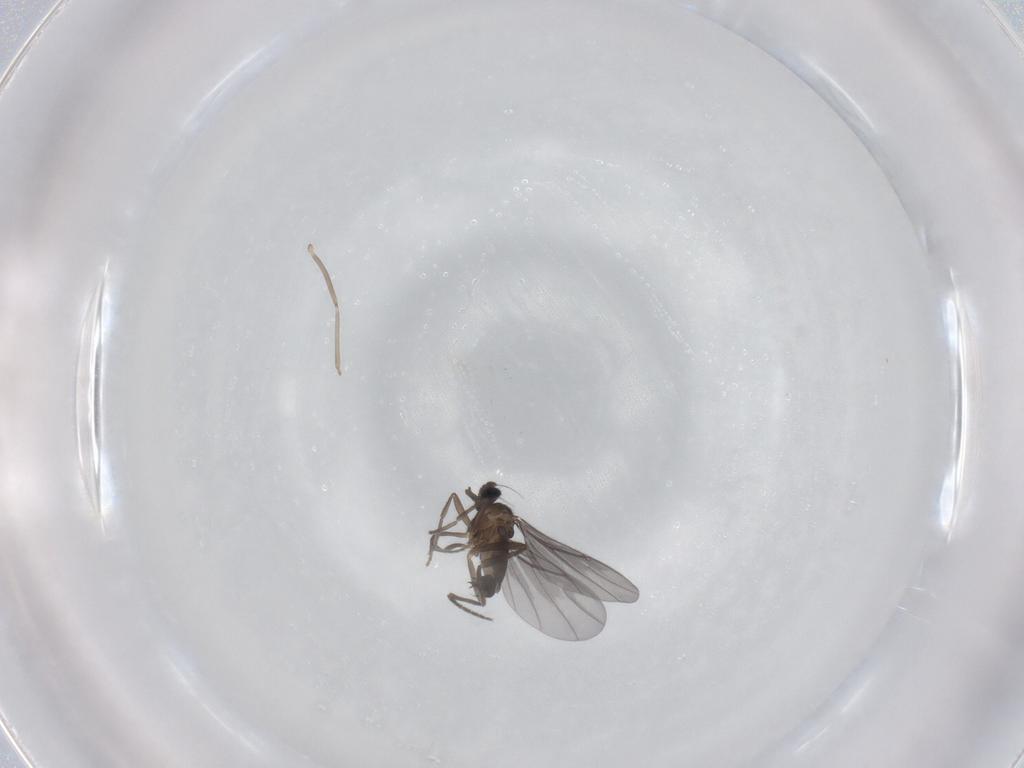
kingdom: Animalia
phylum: Arthropoda
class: Insecta
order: Diptera
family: Phoridae
